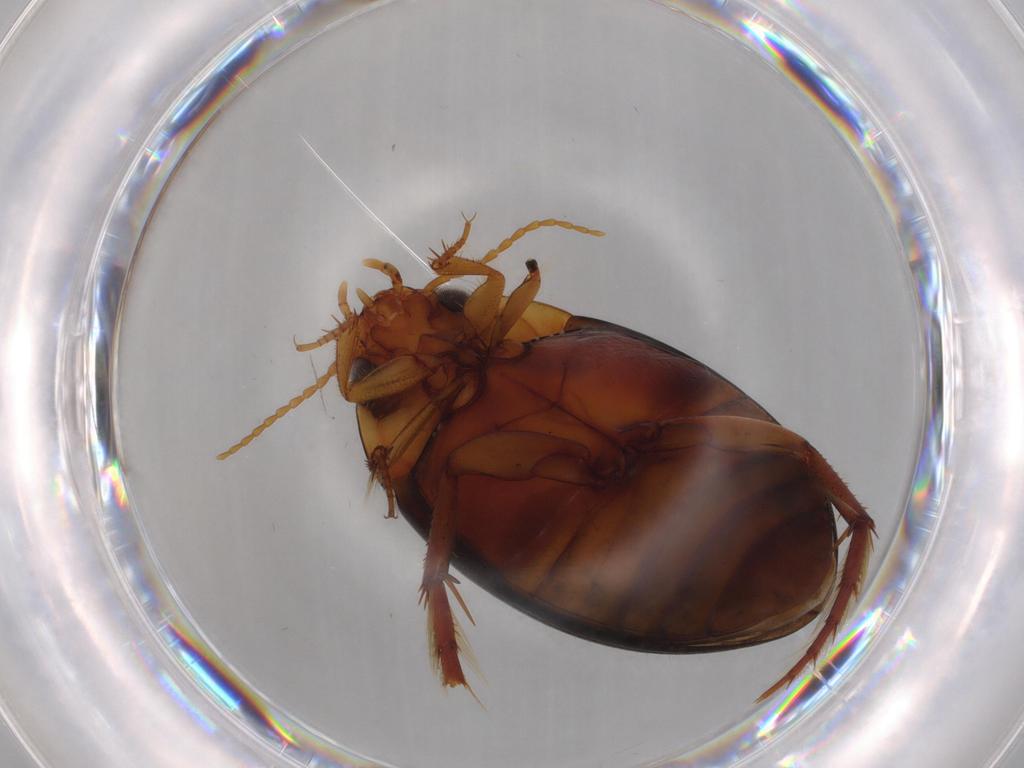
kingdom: Animalia
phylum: Arthropoda
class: Insecta
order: Coleoptera
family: Dytiscidae
